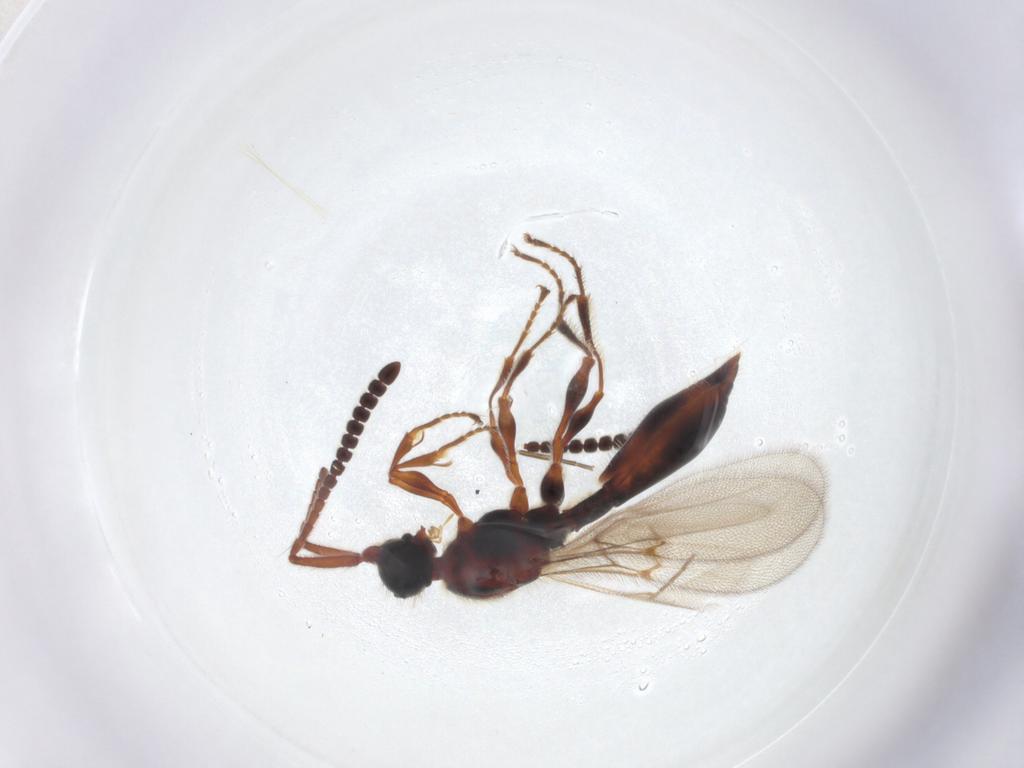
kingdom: Animalia
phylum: Arthropoda
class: Insecta
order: Hymenoptera
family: Diapriidae
